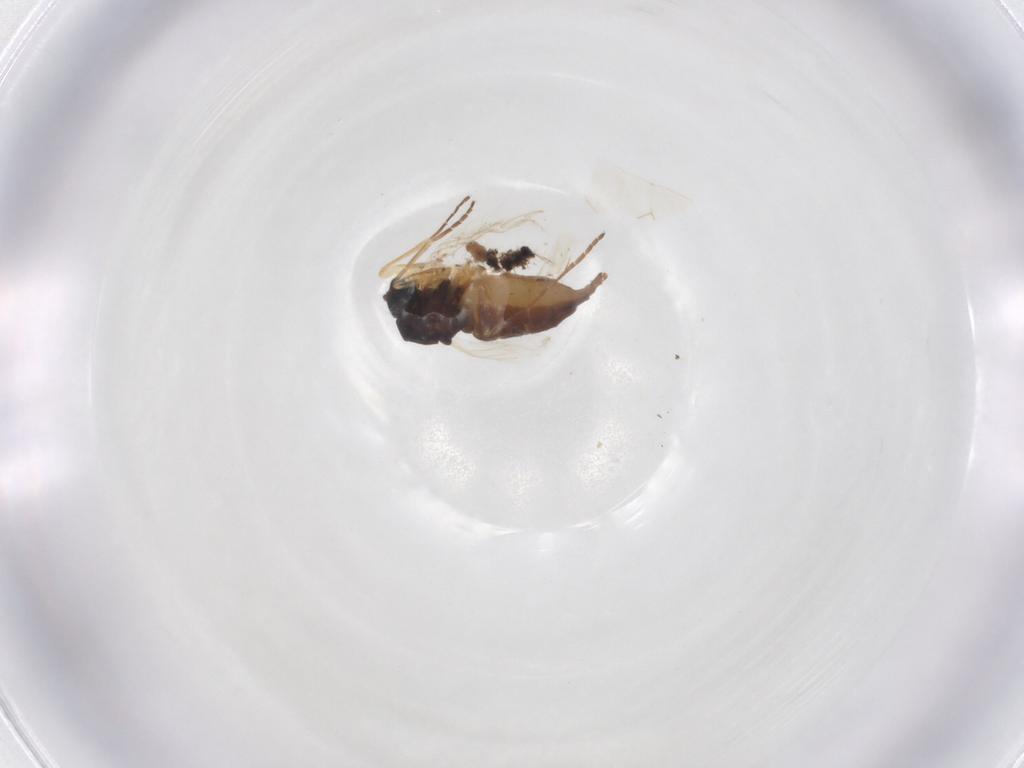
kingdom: Animalia
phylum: Arthropoda
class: Insecta
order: Diptera
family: Sciaridae
